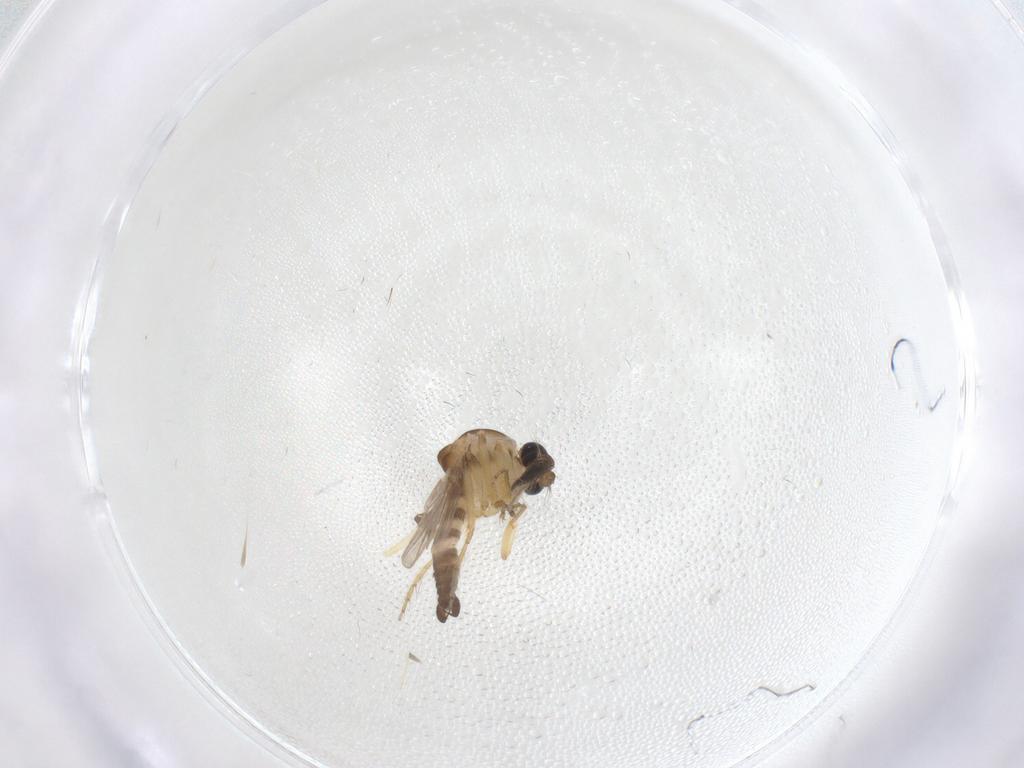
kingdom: Animalia
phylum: Arthropoda
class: Insecta
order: Diptera
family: Ceratopogonidae
